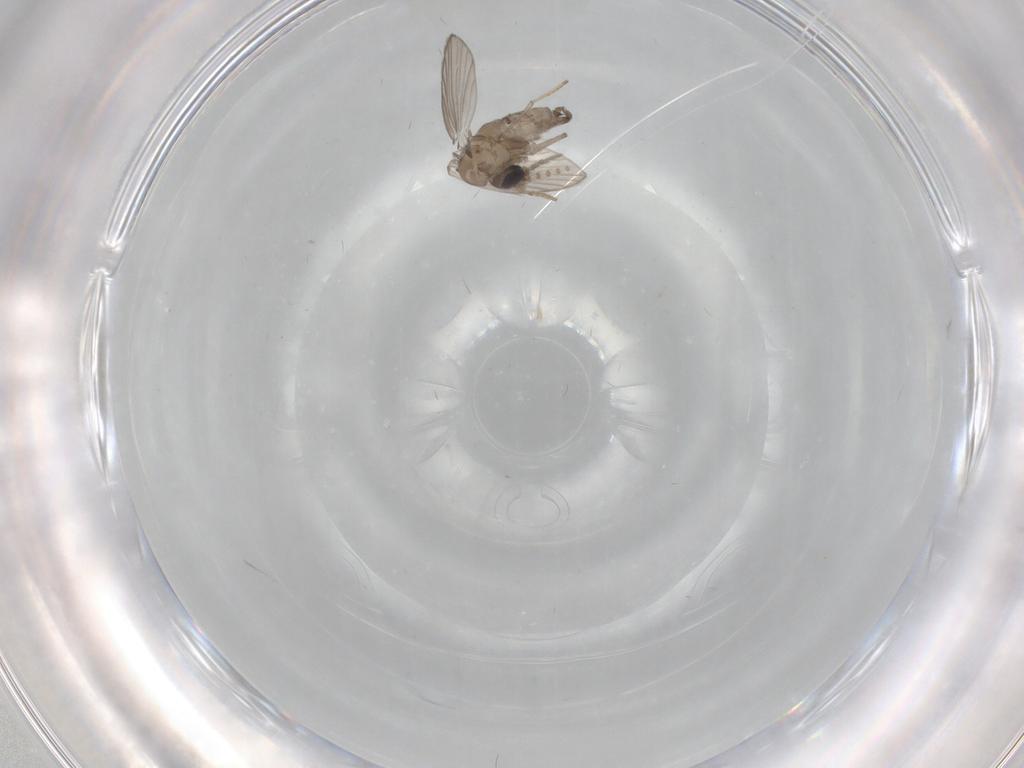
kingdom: Animalia
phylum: Arthropoda
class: Insecta
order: Diptera
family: Psychodidae
